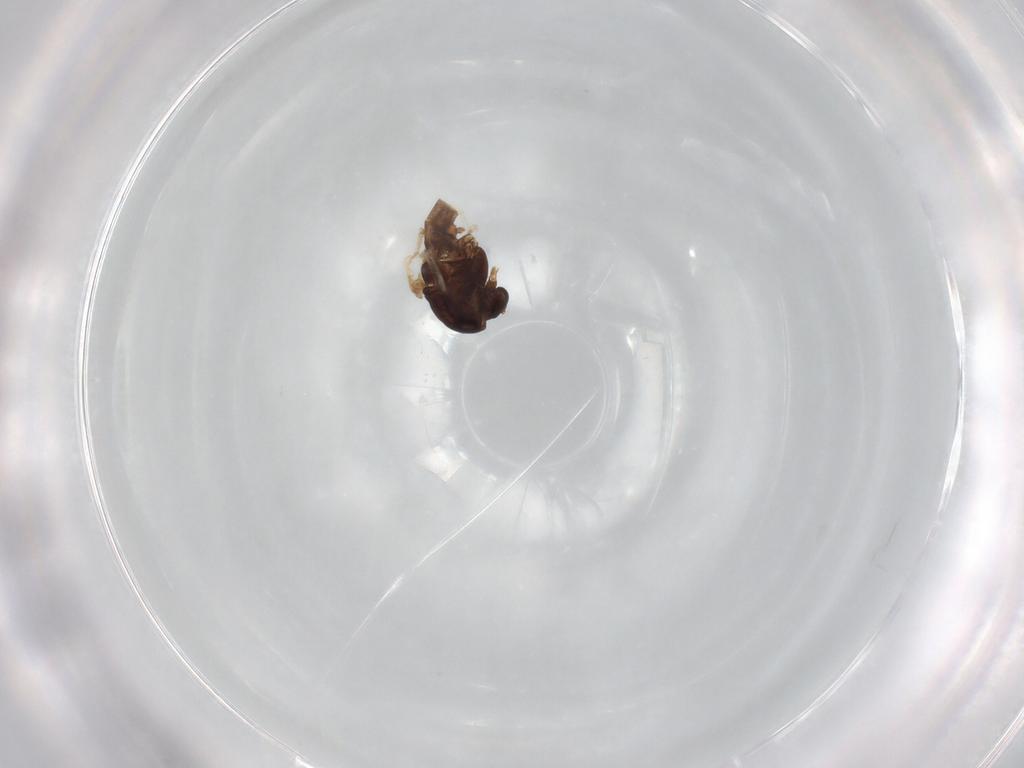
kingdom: Animalia
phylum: Arthropoda
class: Insecta
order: Diptera
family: Chironomidae
